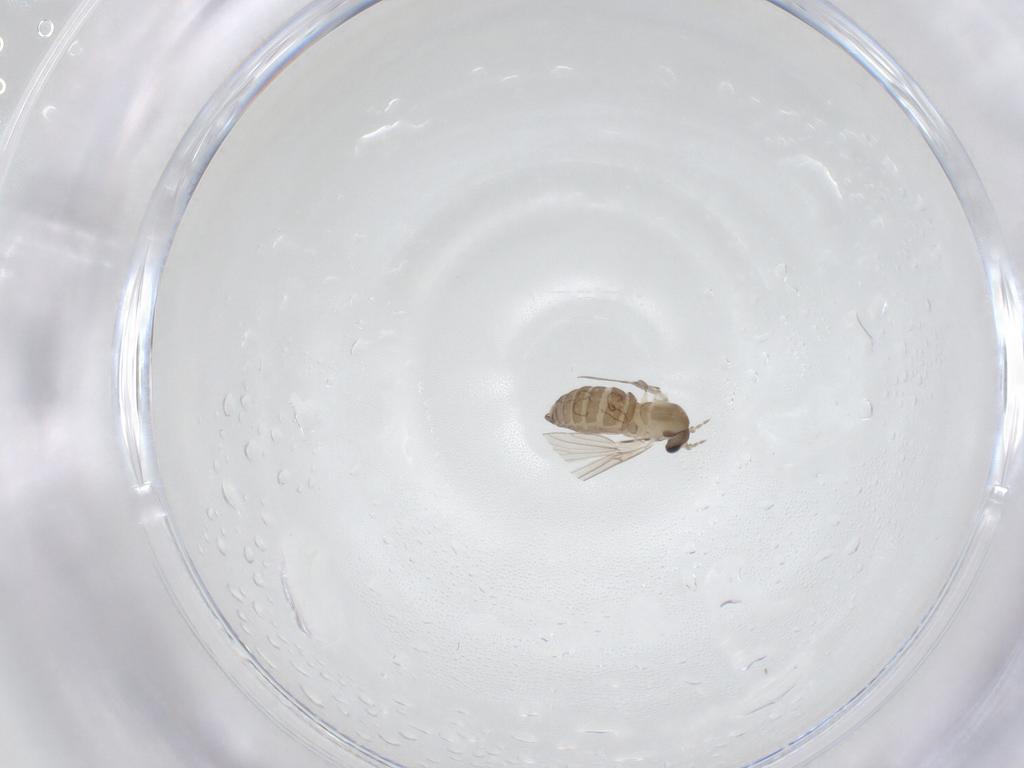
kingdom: Animalia
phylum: Arthropoda
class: Insecta
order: Diptera
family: Psychodidae
